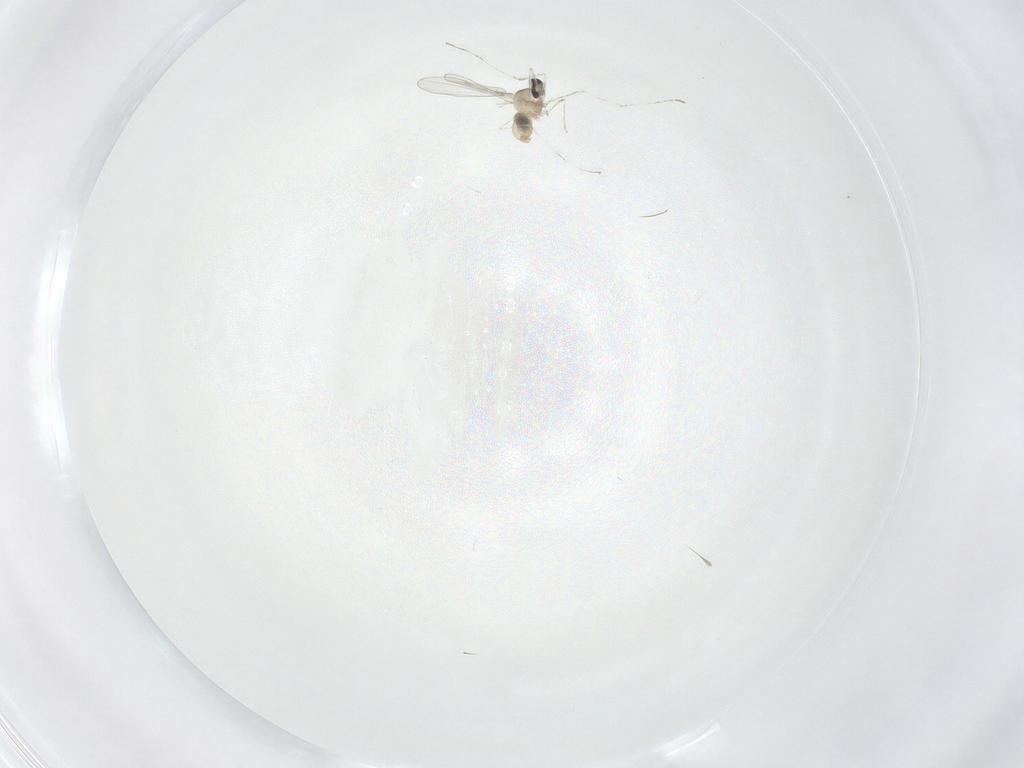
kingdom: Animalia
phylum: Arthropoda
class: Insecta
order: Diptera
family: Cecidomyiidae
